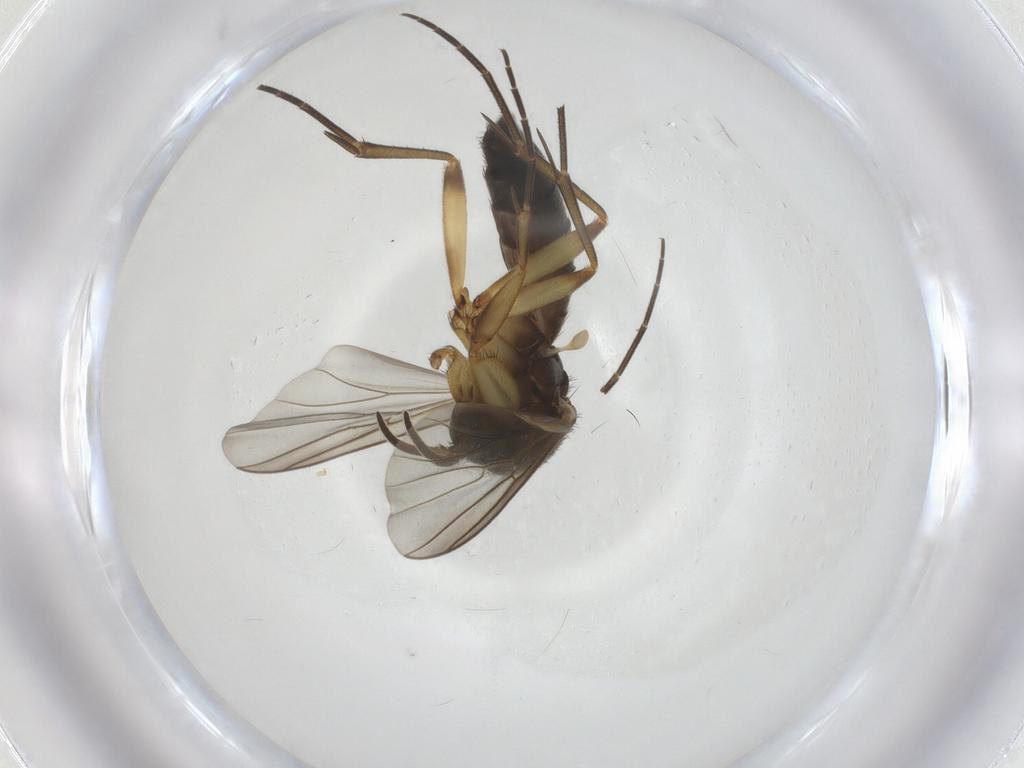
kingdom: Animalia
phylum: Arthropoda
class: Insecta
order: Diptera
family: Mycetophilidae
